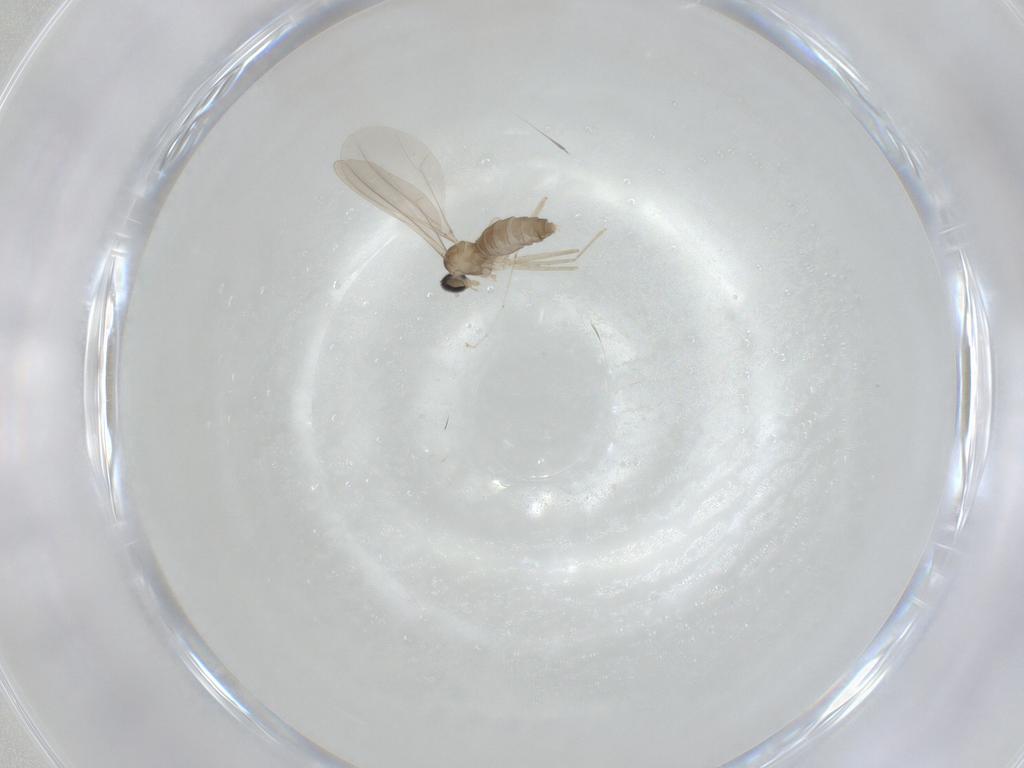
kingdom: Animalia
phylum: Arthropoda
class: Insecta
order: Diptera
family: Cecidomyiidae
